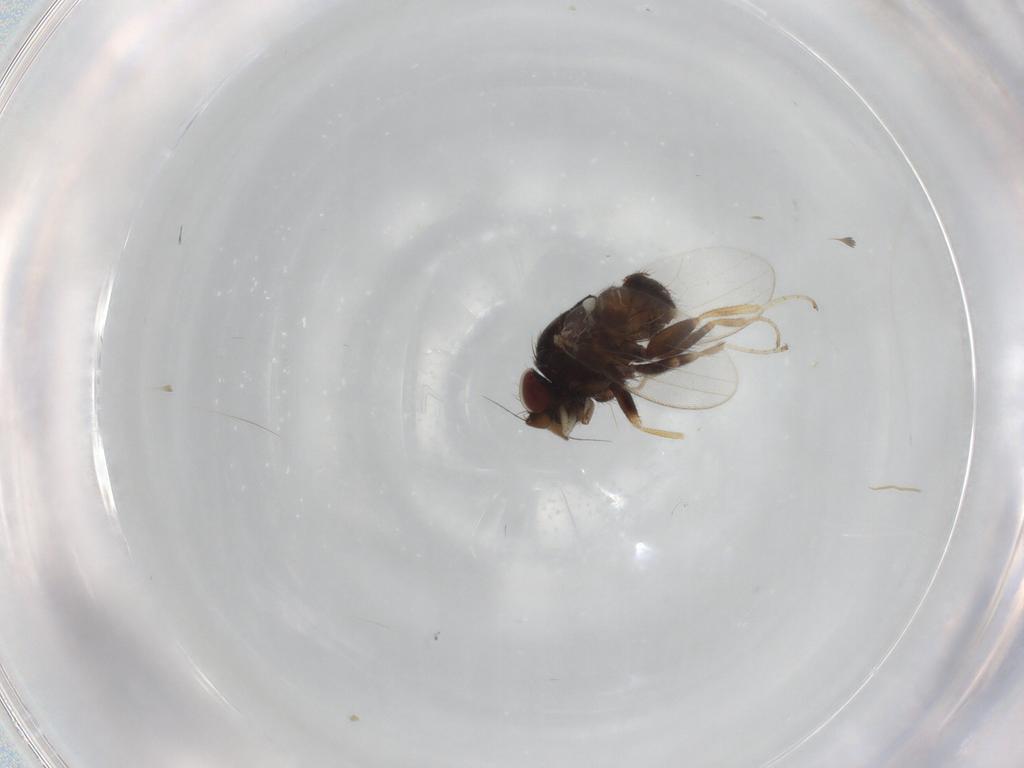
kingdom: Animalia
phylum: Arthropoda
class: Insecta
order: Diptera
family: Milichiidae
